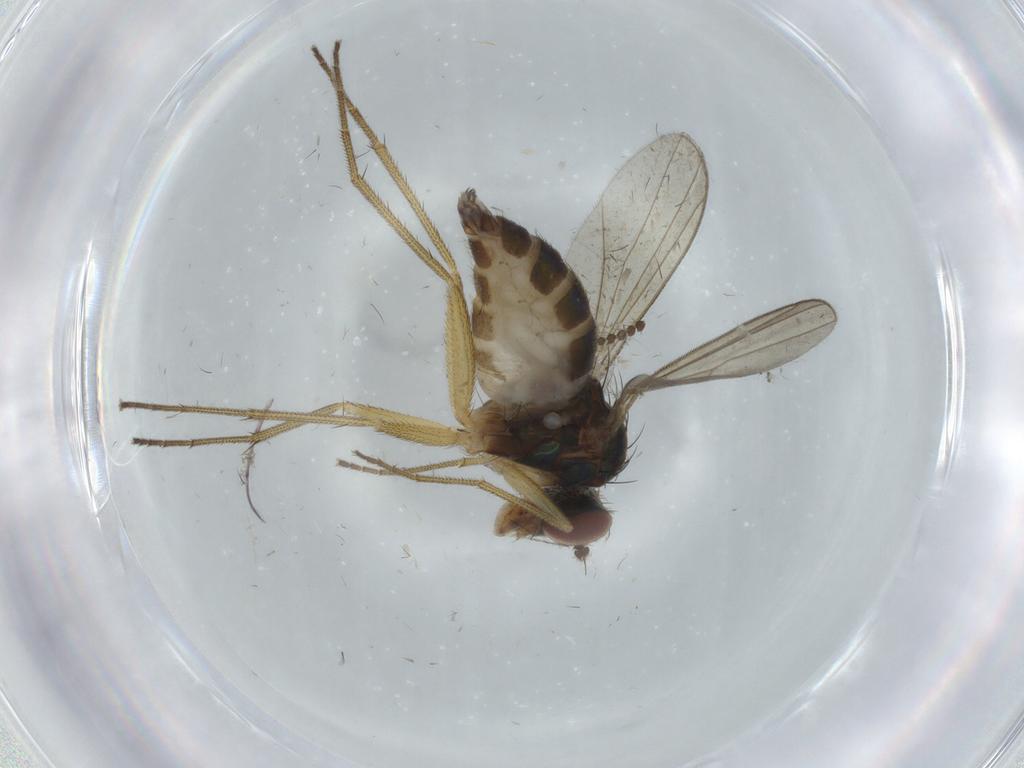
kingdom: Animalia
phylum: Arthropoda
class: Insecta
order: Diptera
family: Dolichopodidae
